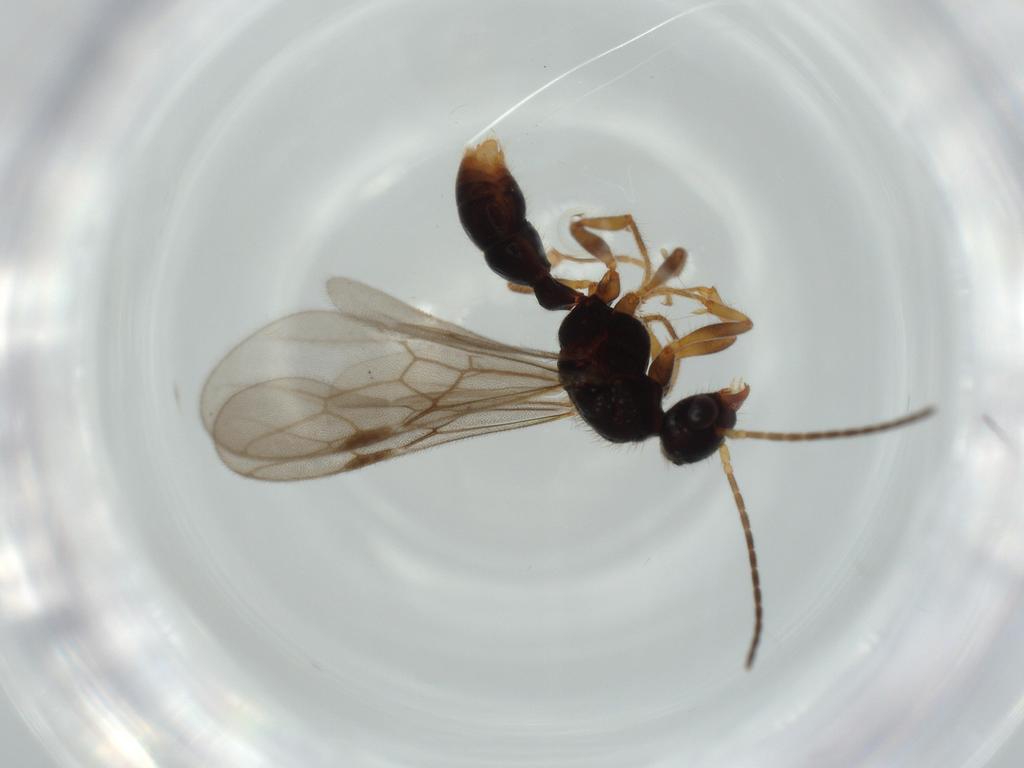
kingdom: Animalia
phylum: Arthropoda
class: Insecta
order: Hymenoptera
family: Formicidae
